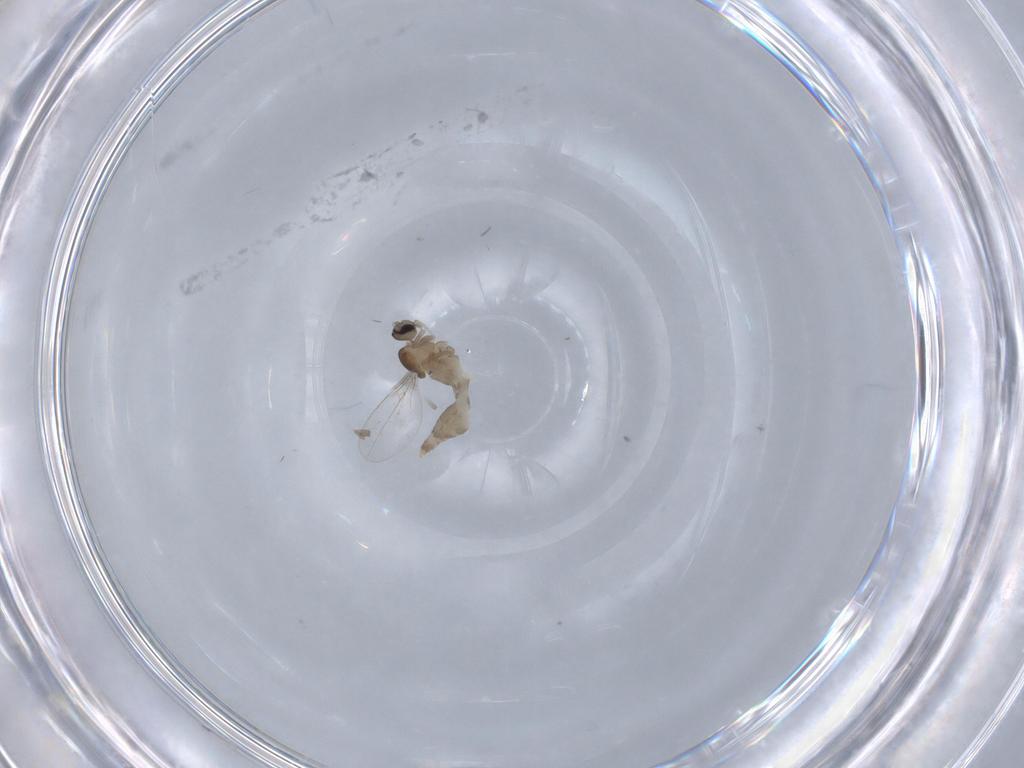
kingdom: Animalia
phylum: Arthropoda
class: Insecta
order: Diptera
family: Cecidomyiidae
